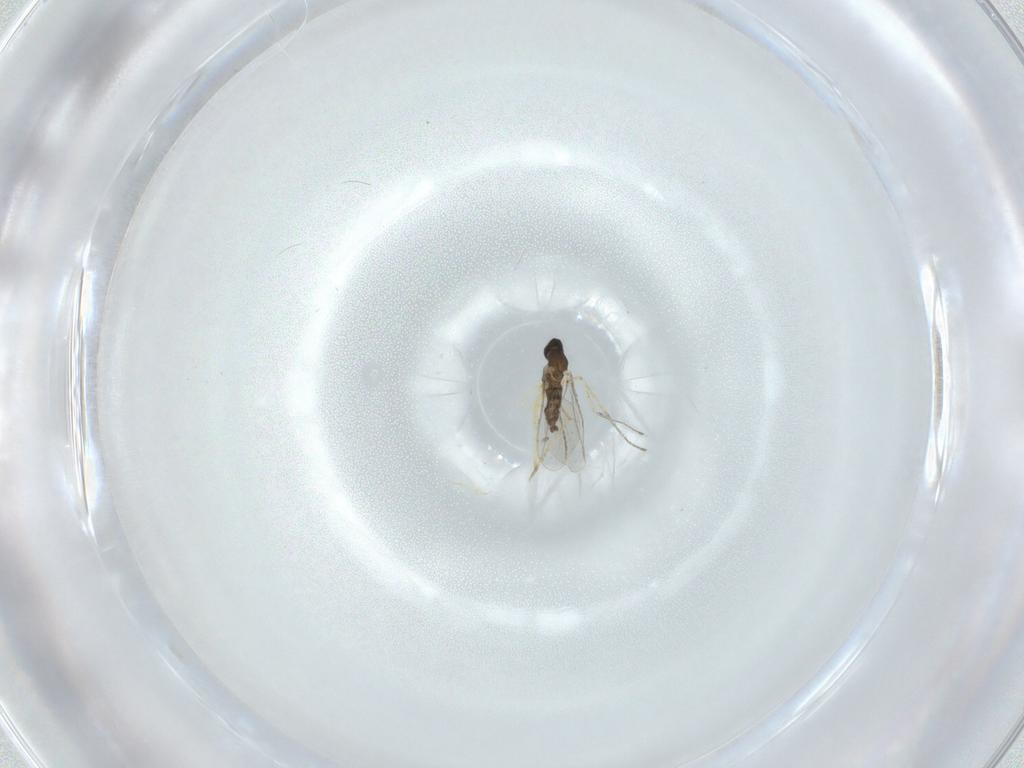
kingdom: Animalia
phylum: Arthropoda
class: Insecta
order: Diptera
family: Cecidomyiidae
